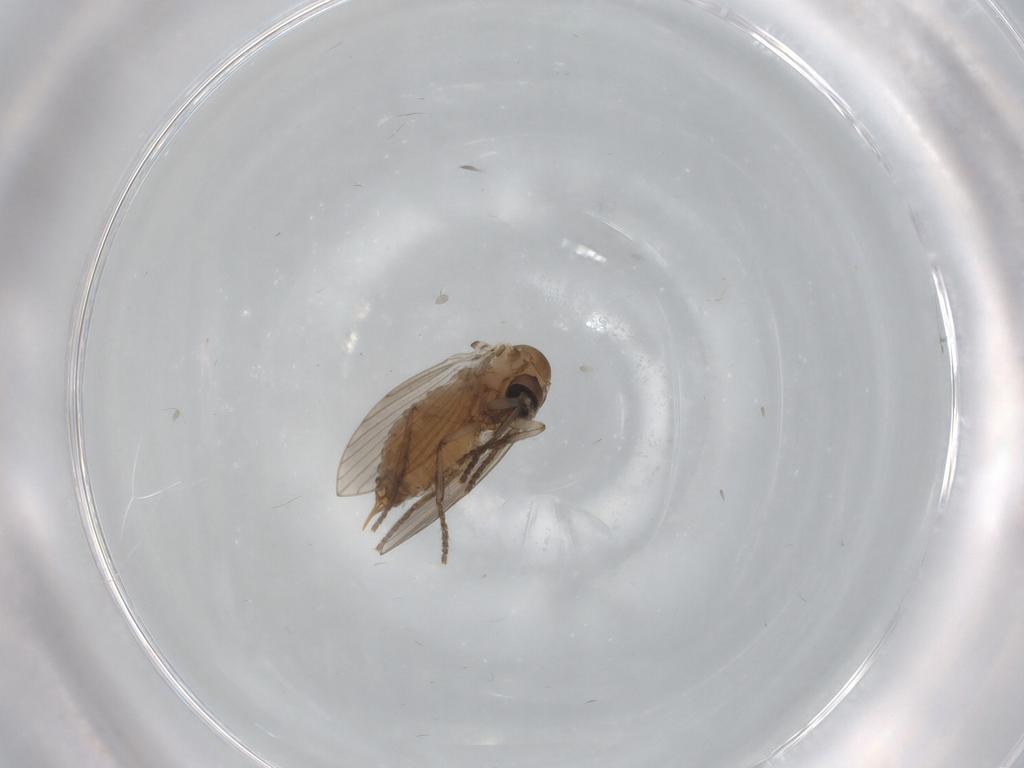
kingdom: Animalia
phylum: Arthropoda
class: Insecta
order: Diptera
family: Psychodidae
